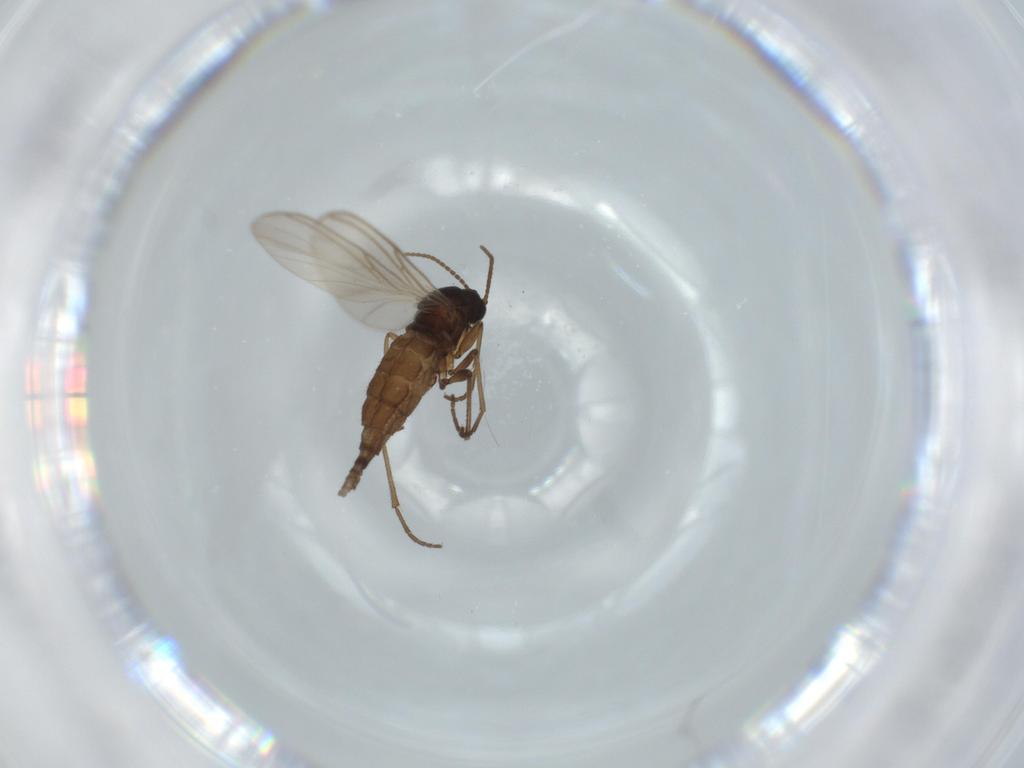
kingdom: Animalia
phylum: Arthropoda
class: Insecta
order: Diptera
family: Sciaridae
